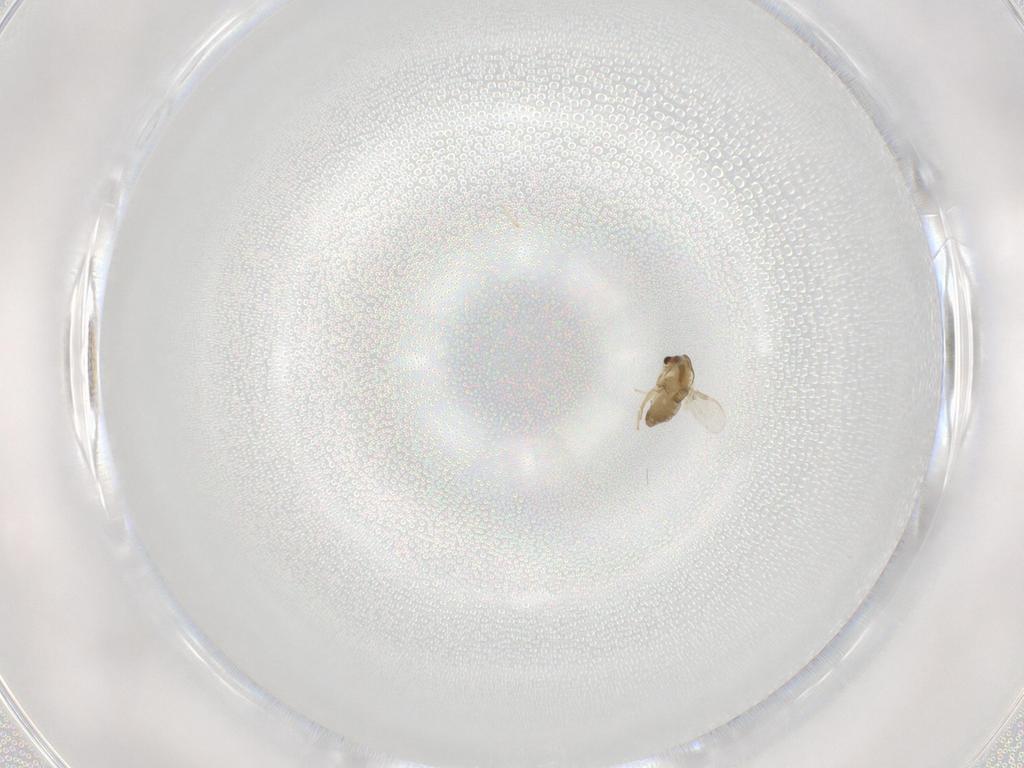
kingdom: Animalia
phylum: Arthropoda
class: Insecta
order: Diptera
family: Chironomidae
